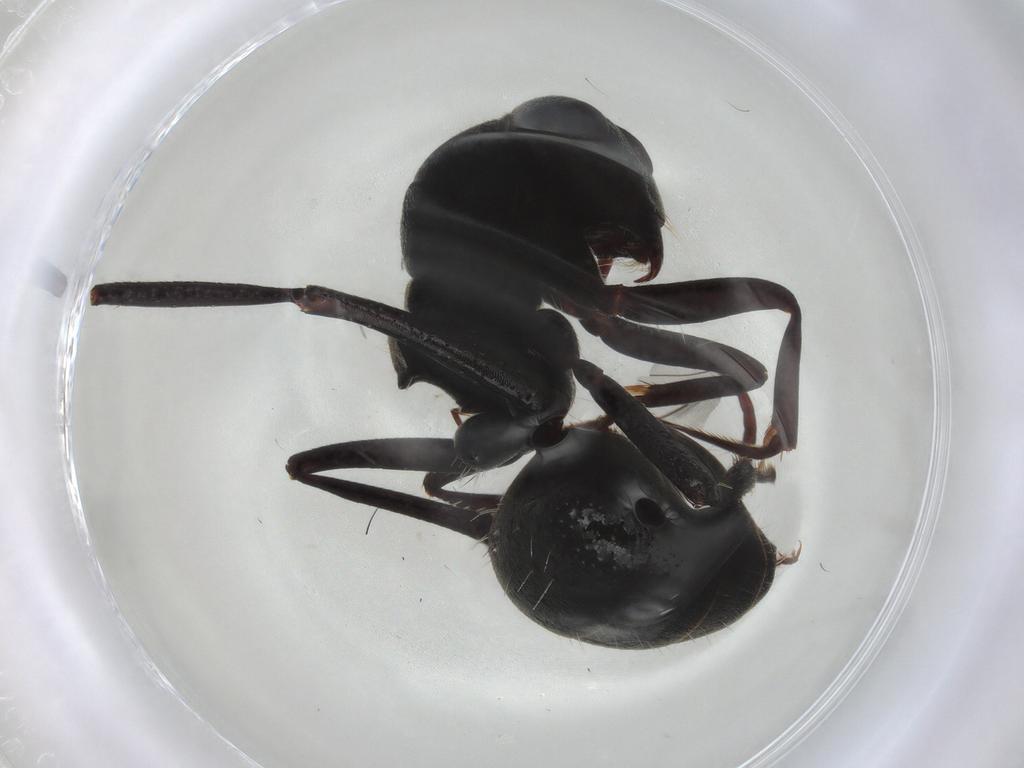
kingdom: Animalia
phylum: Arthropoda
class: Insecta
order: Hymenoptera
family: Formicidae
